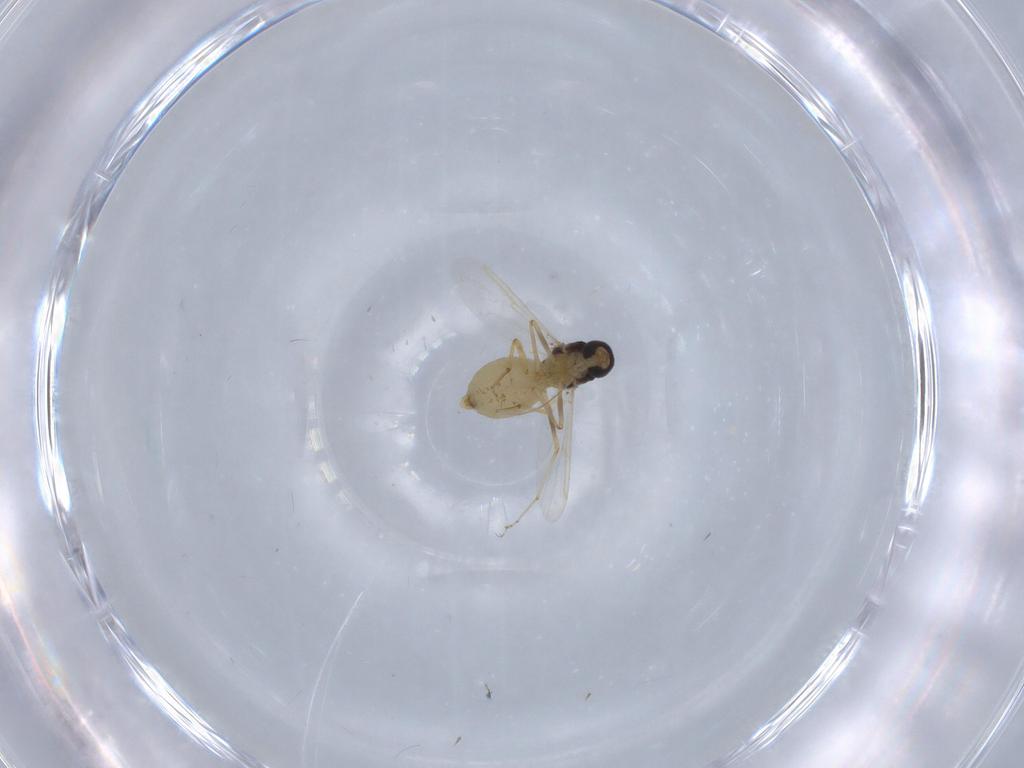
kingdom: Animalia
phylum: Arthropoda
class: Insecta
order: Diptera
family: Ceratopogonidae
